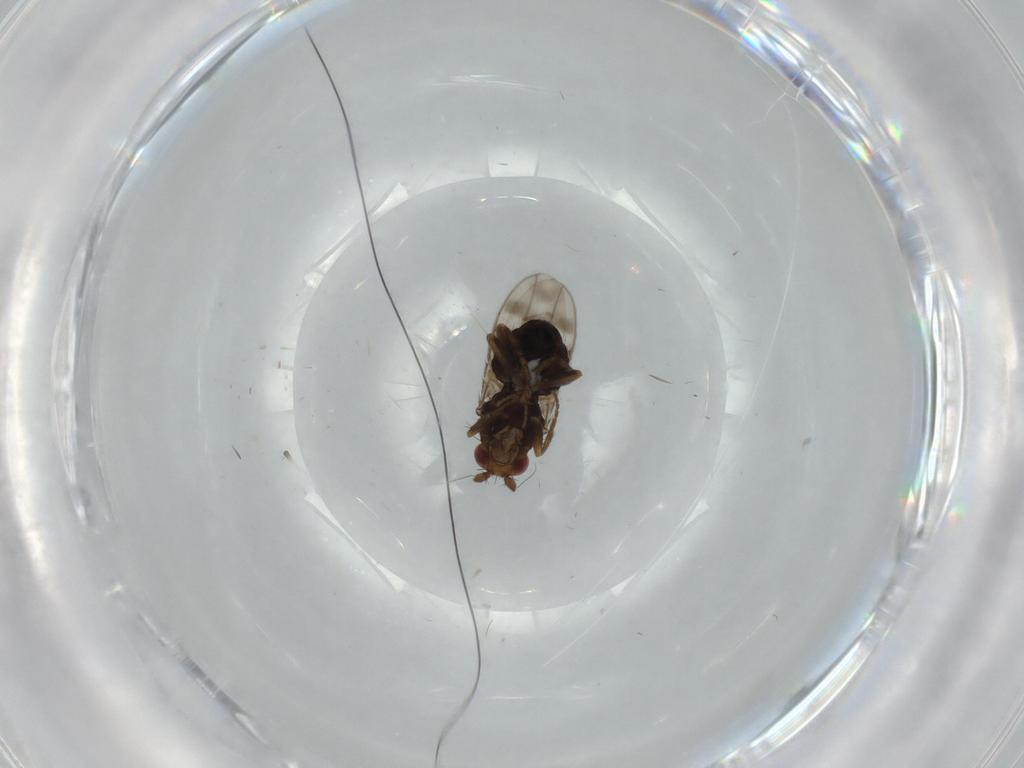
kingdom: Animalia
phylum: Arthropoda
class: Insecta
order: Diptera
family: Sphaeroceridae
